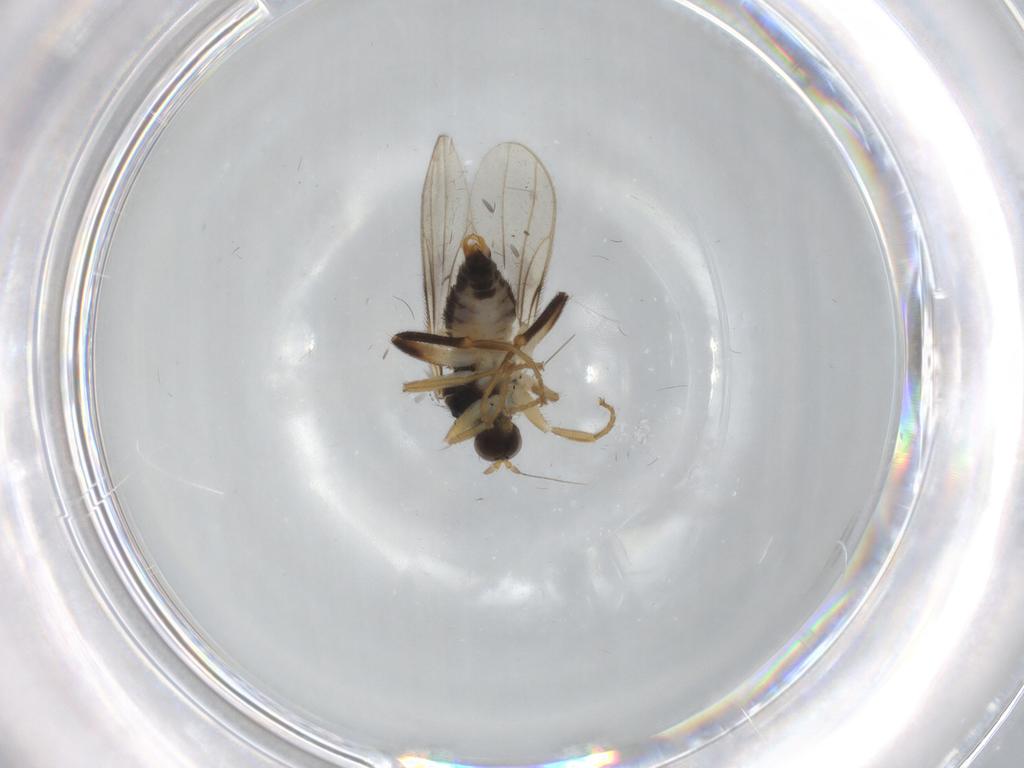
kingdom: Animalia
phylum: Arthropoda
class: Insecta
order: Diptera
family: Hybotidae
